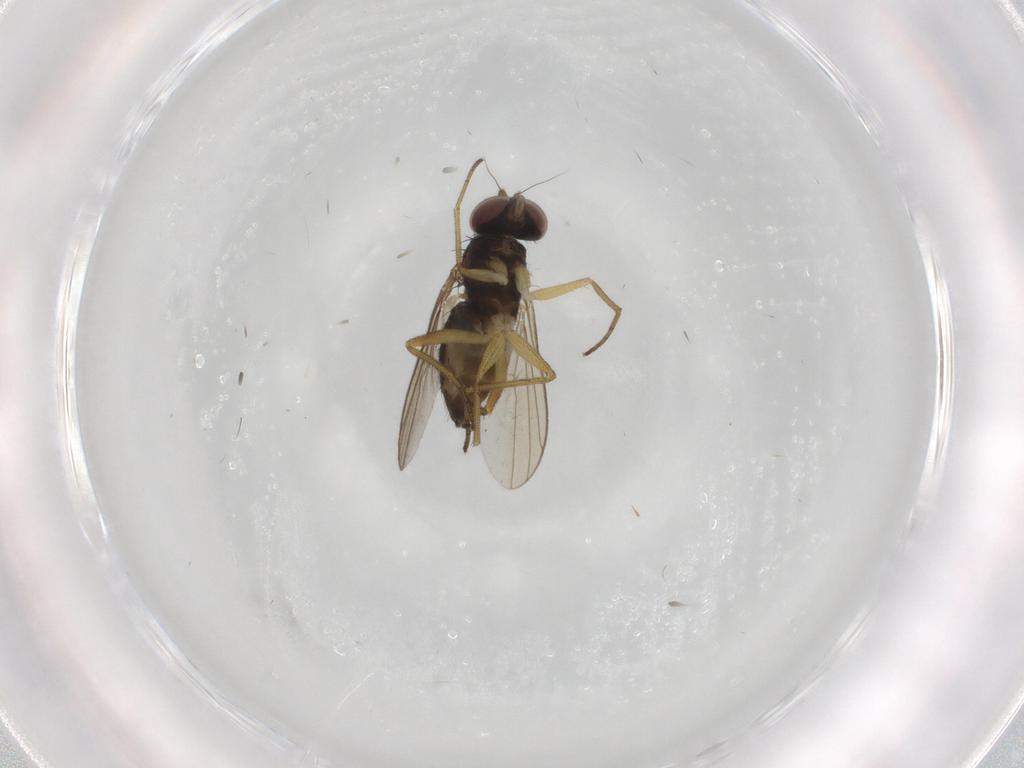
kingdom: Animalia
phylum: Arthropoda
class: Insecta
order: Diptera
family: Dolichopodidae
